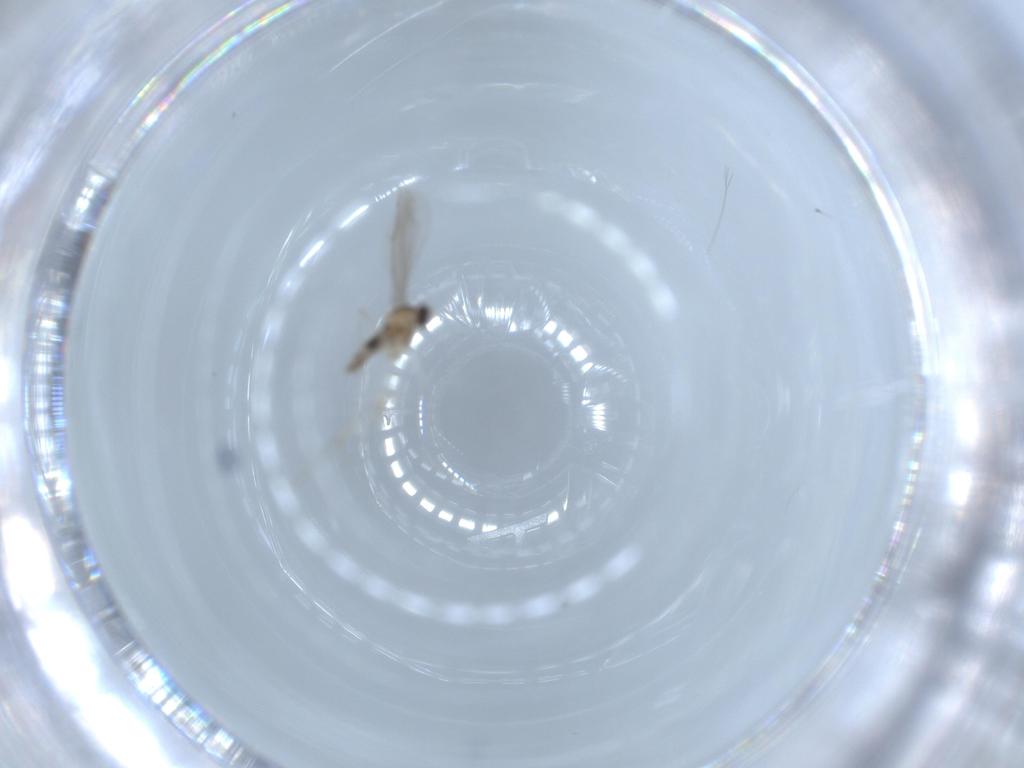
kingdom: Animalia
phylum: Arthropoda
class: Insecta
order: Diptera
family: Cecidomyiidae
